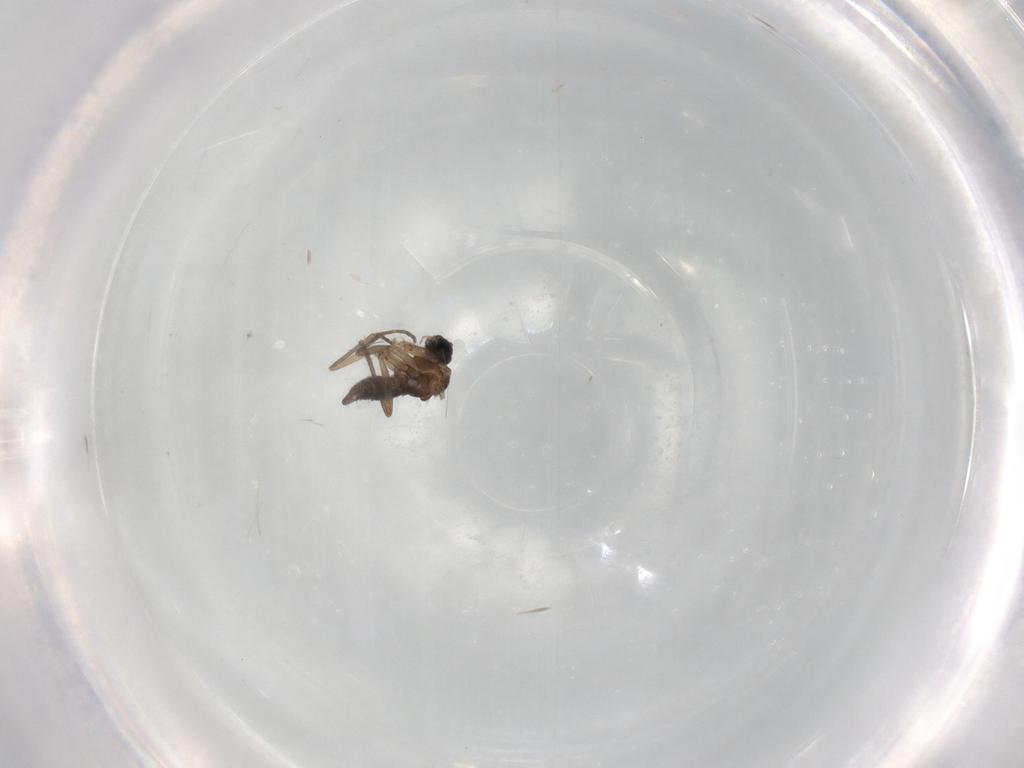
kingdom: Animalia
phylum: Arthropoda
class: Insecta
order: Diptera
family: Sciaridae
